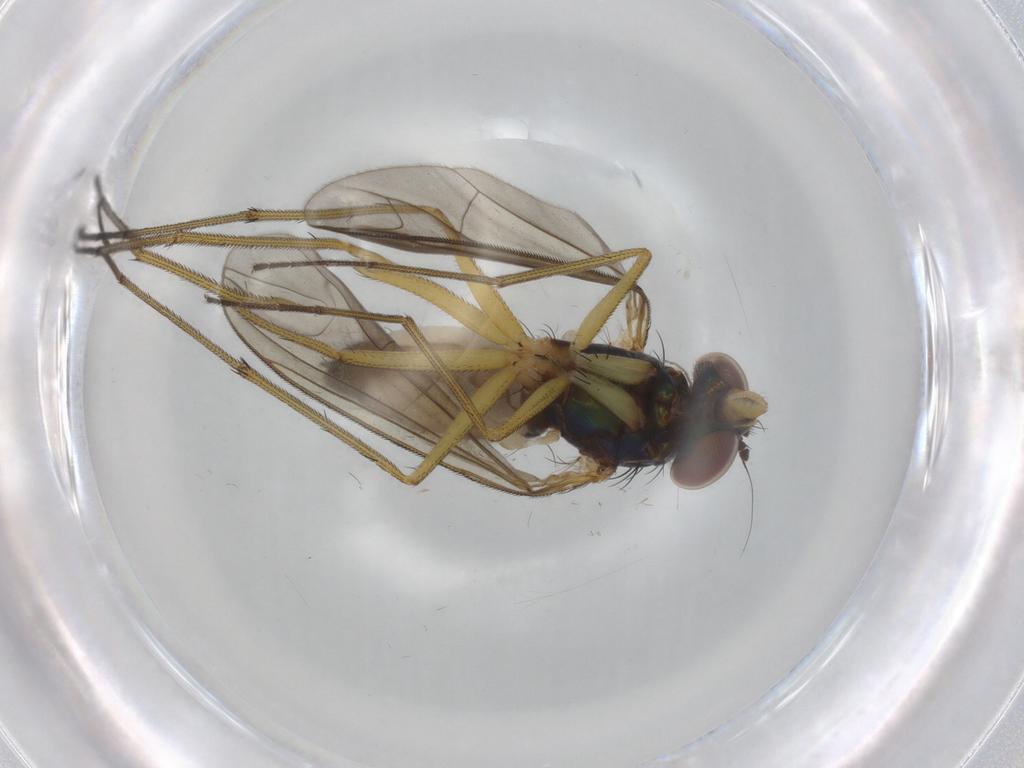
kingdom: Animalia
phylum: Arthropoda
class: Insecta
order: Diptera
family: Dolichopodidae
